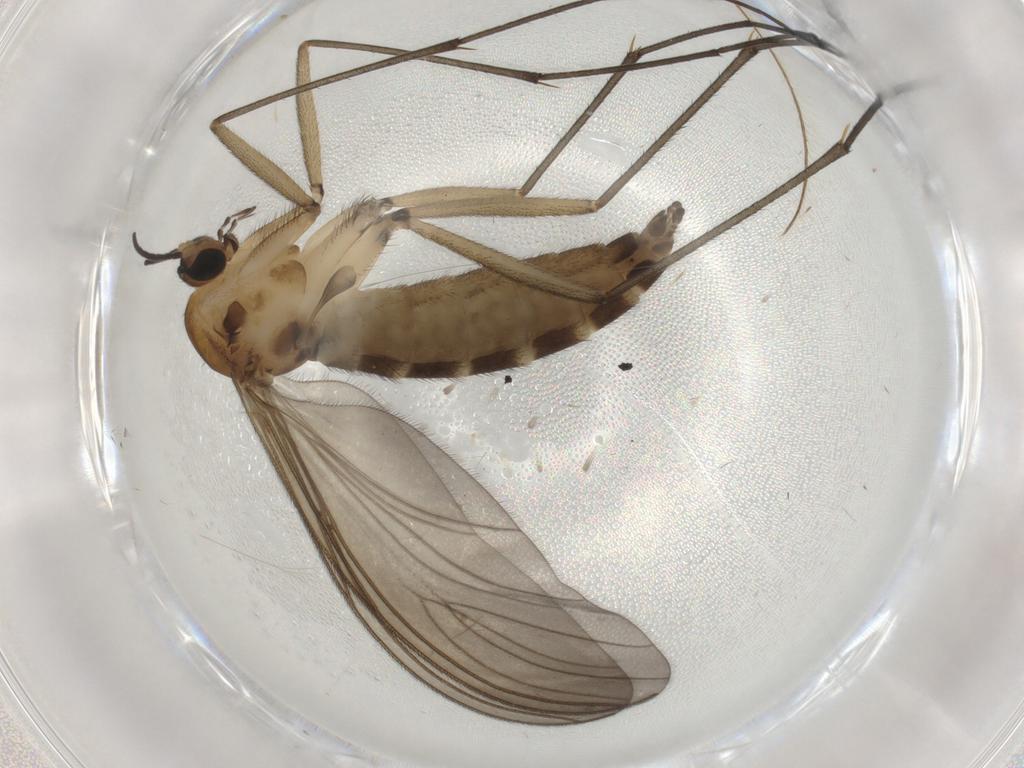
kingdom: Animalia
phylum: Arthropoda
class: Insecta
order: Diptera
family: Sciaridae
